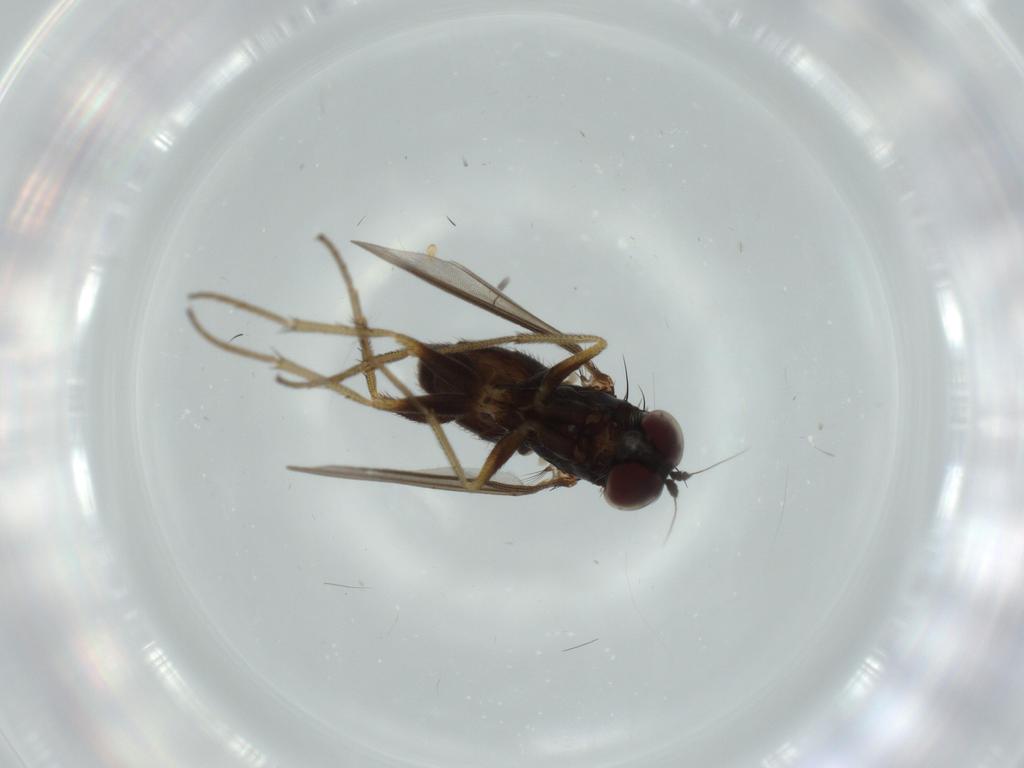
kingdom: Animalia
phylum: Arthropoda
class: Insecta
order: Diptera
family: Dolichopodidae
